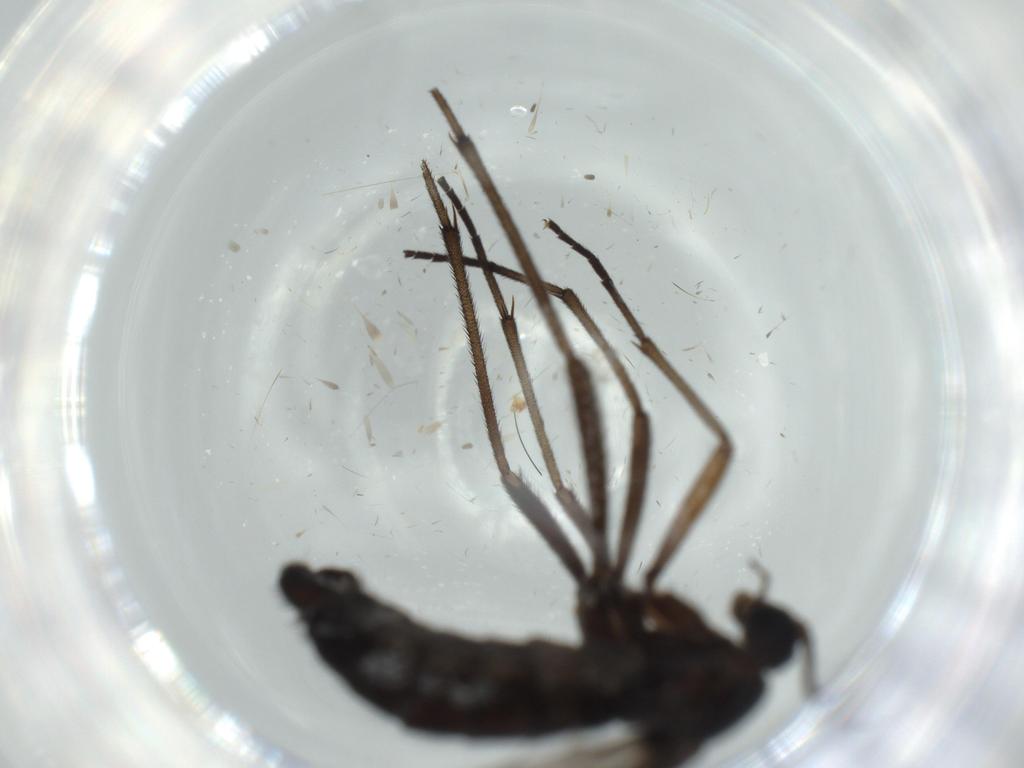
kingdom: Animalia
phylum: Arthropoda
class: Insecta
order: Diptera
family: Sciaridae
